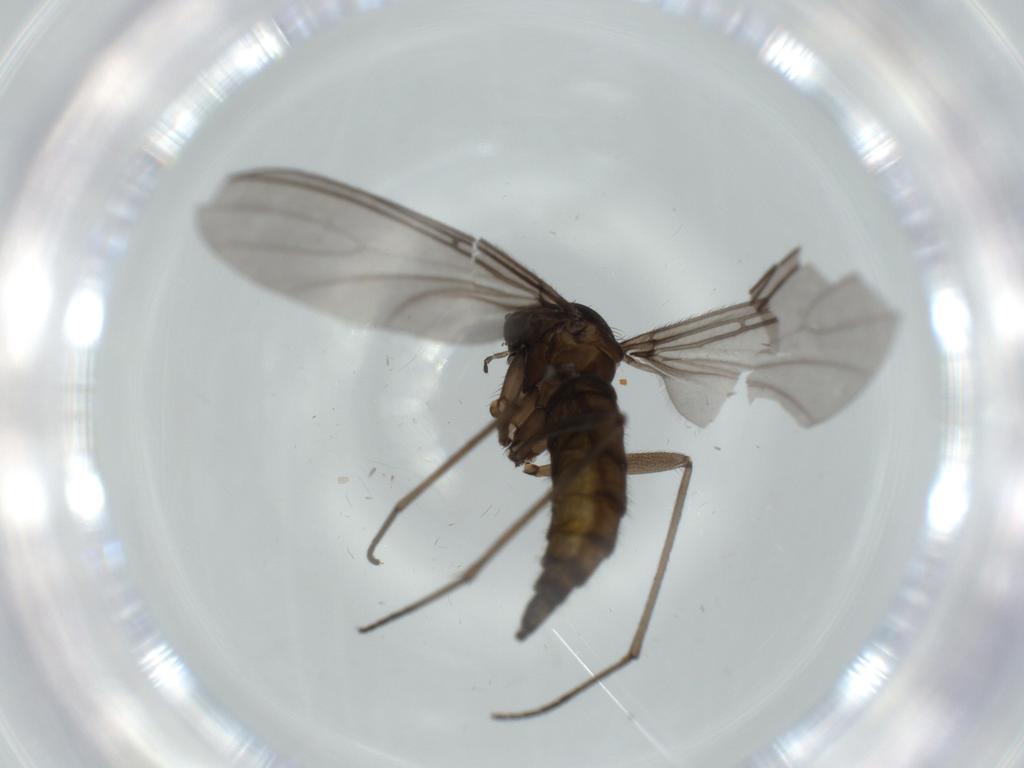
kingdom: Animalia
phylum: Arthropoda
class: Insecta
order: Diptera
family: Sciaridae
